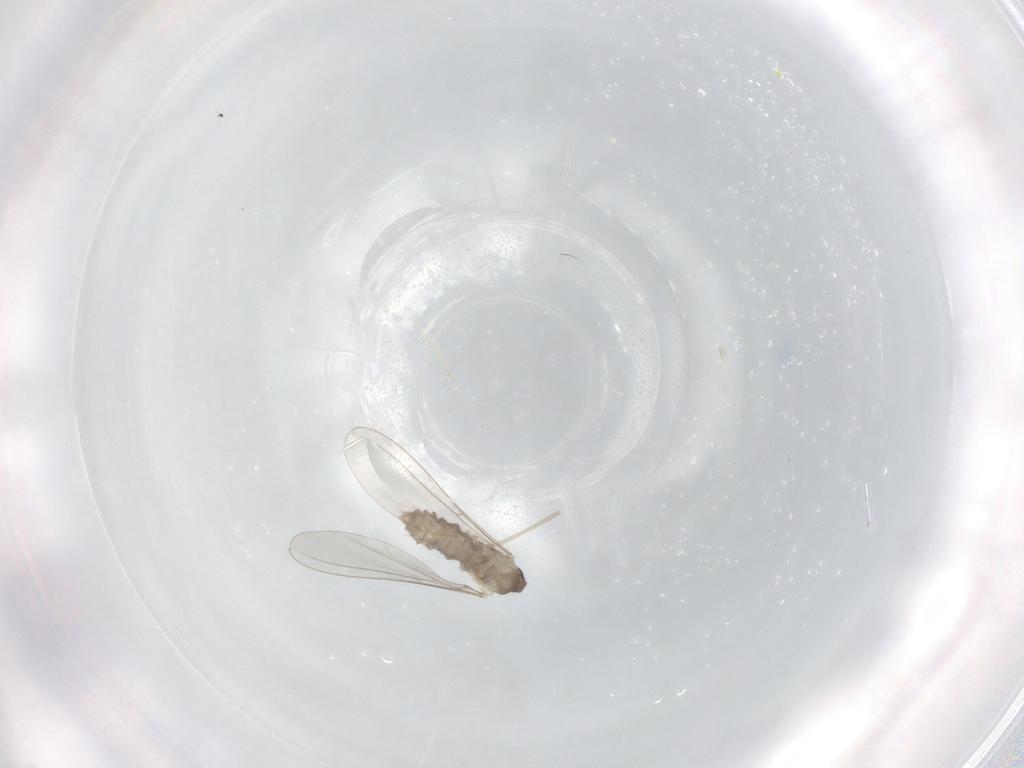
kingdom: Animalia
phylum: Arthropoda
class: Insecta
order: Diptera
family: Cecidomyiidae
